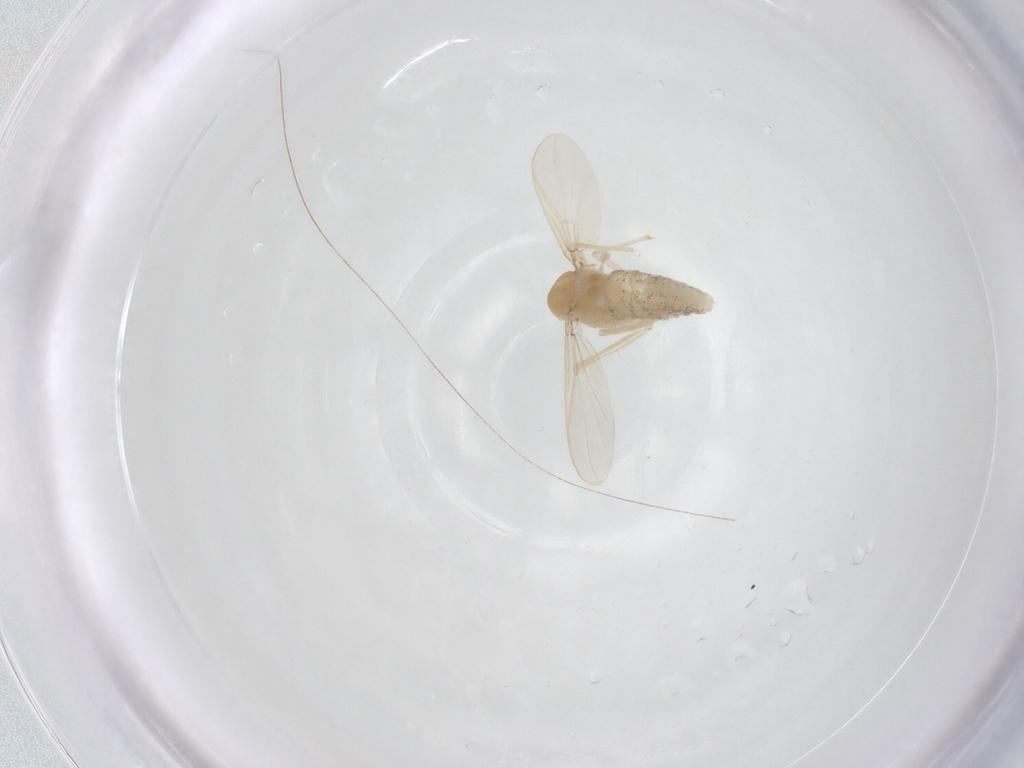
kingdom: Animalia
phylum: Arthropoda
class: Insecta
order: Diptera
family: Chironomidae
